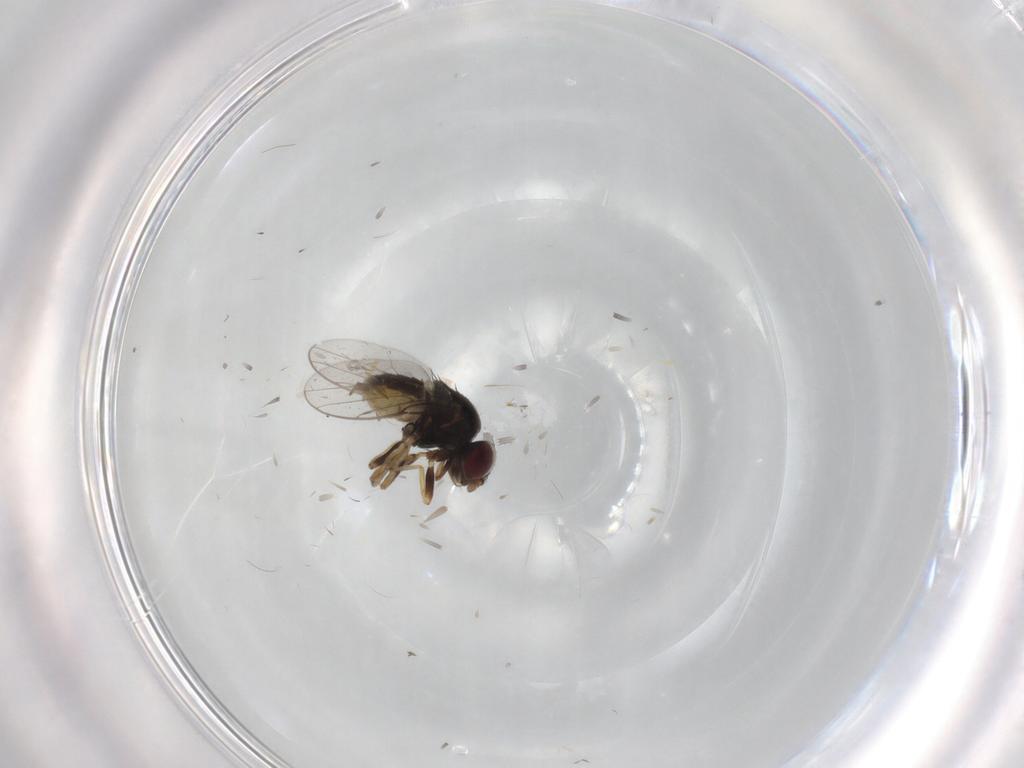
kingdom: Animalia
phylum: Arthropoda
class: Insecta
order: Diptera
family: Chloropidae
